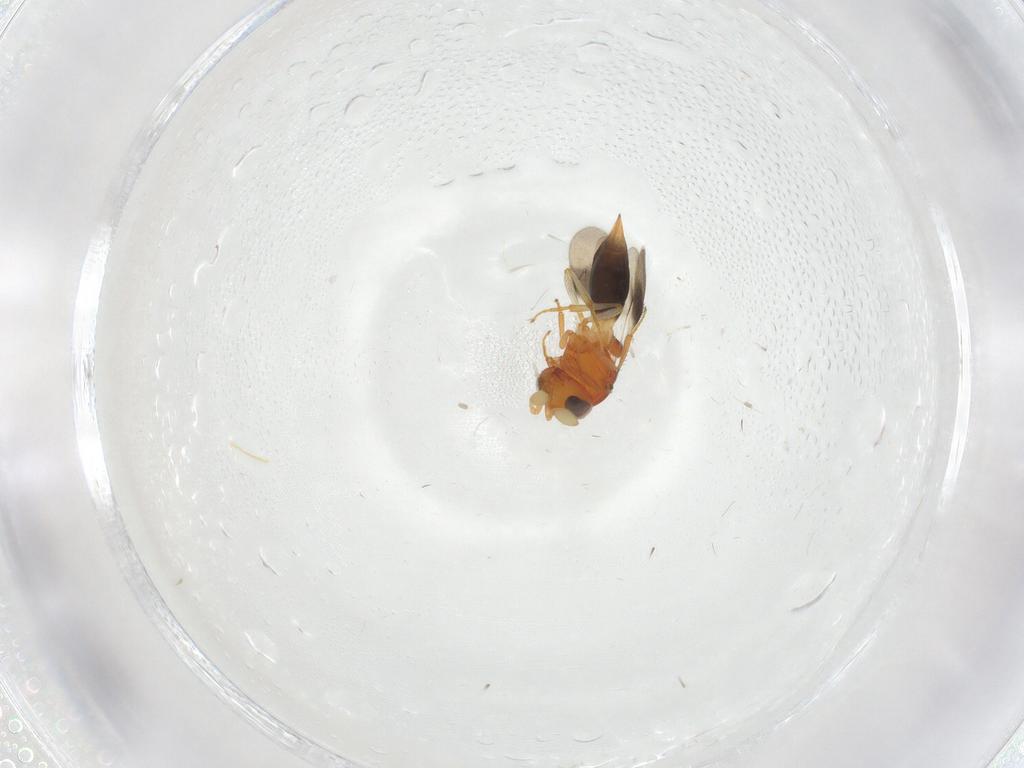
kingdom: Animalia
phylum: Arthropoda
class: Insecta
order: Hymenoptera
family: Scelionidae
